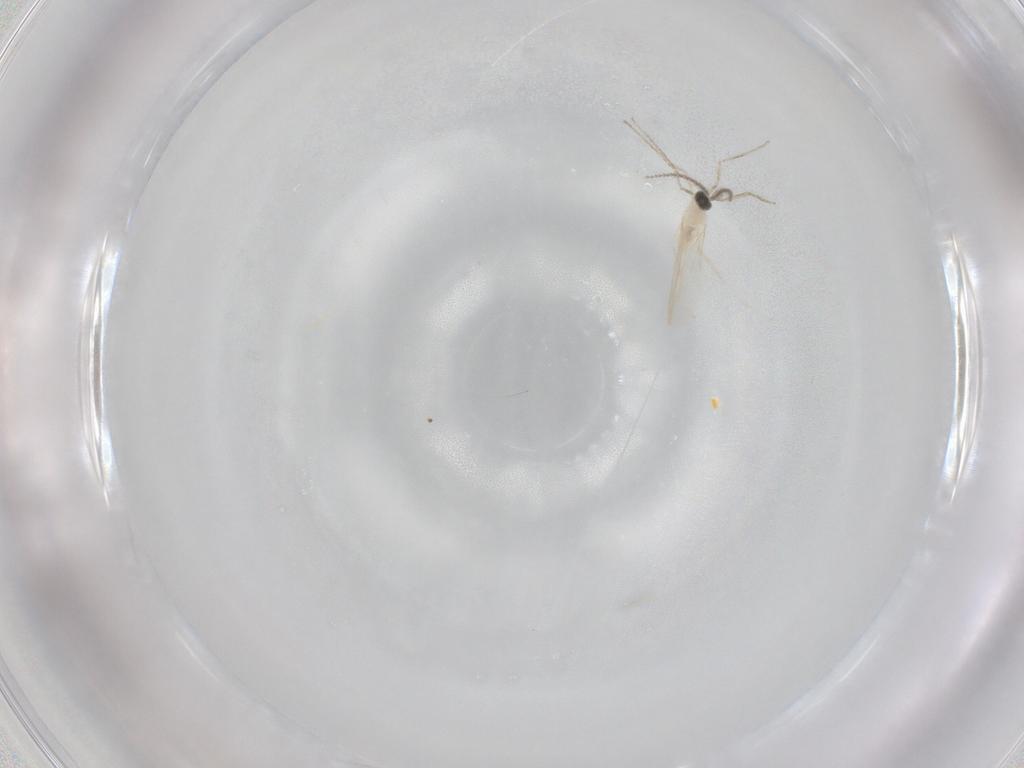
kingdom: Animalia
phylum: Arthropoda
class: Insecta
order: Diptera
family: Cecidomyiidae
